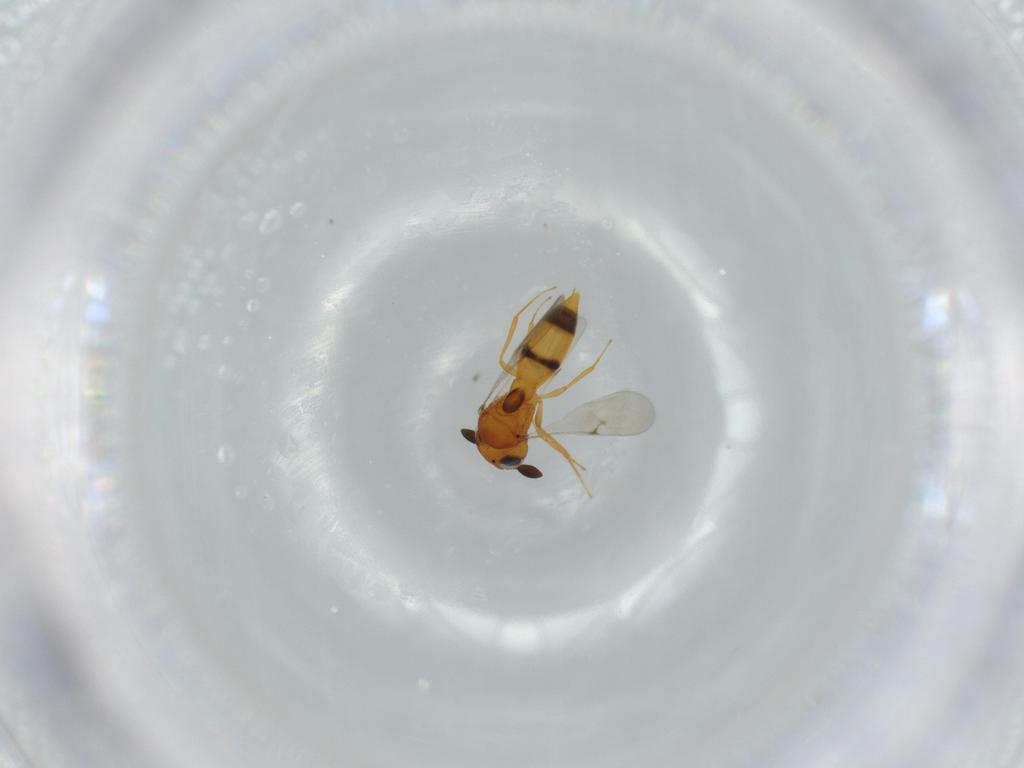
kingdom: Animalia
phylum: Arthropoda
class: Insecta
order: Hymenoptera
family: Scelionidae
